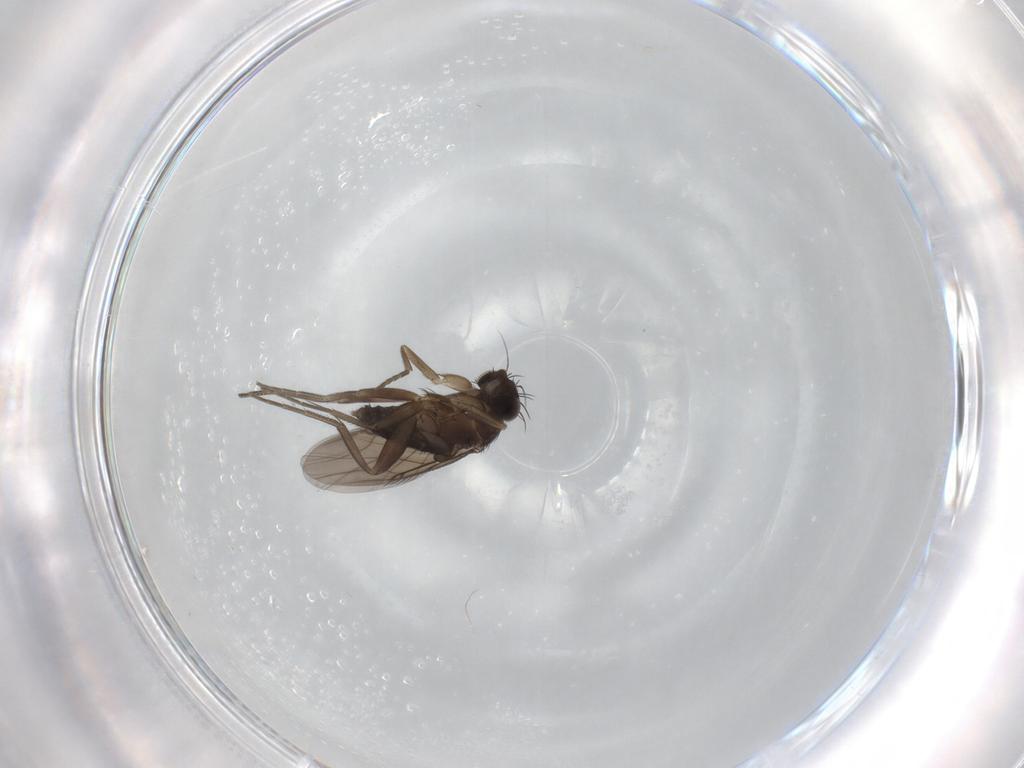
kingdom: Animalia
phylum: Arthropoda
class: Insecta
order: Diptera
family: Phoridae
